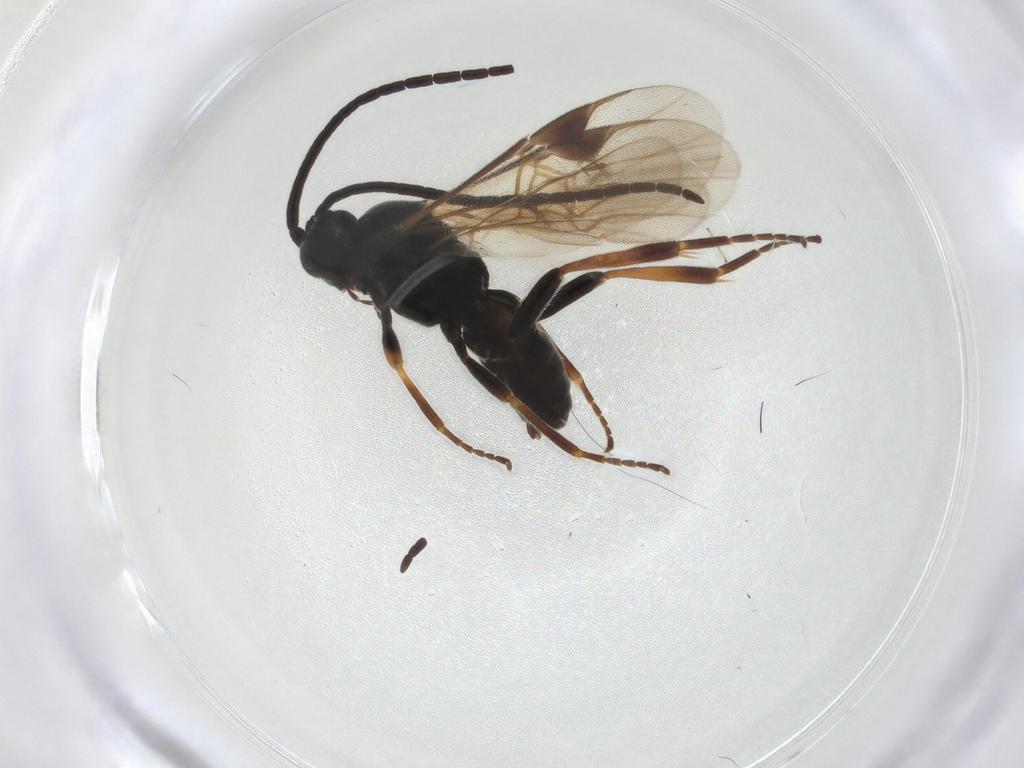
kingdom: Animalia
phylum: Arthropoda
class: Insecta
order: Hymenoptera
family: Braconidae
